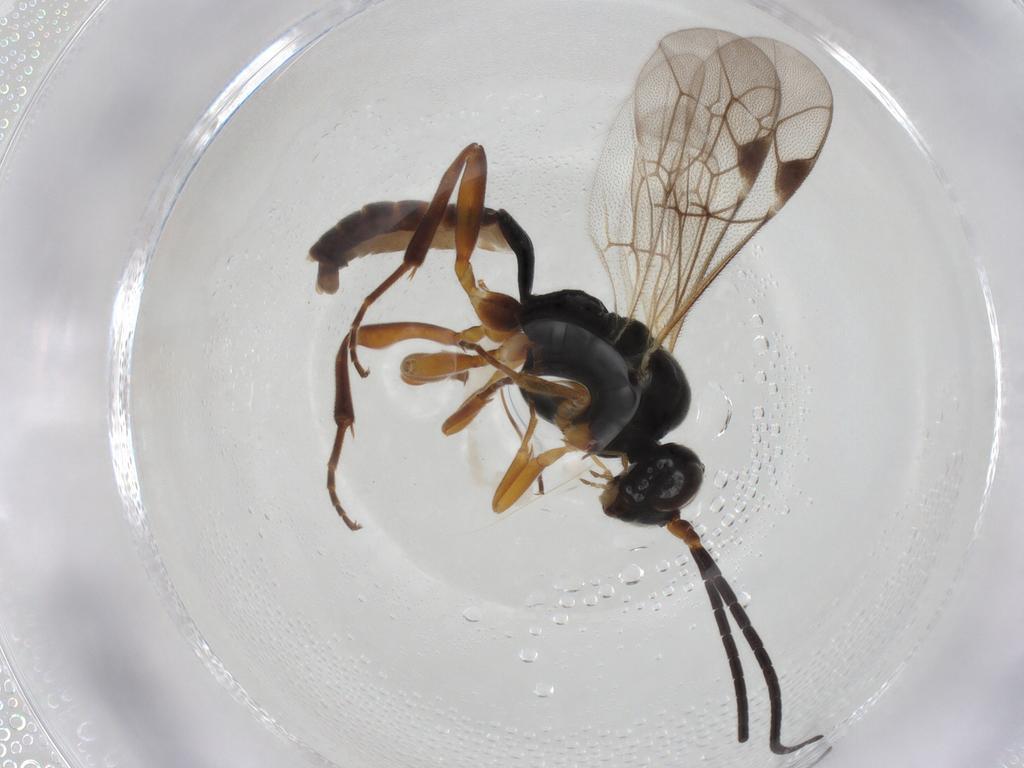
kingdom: Animalia
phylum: Arthropoda
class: Insecta
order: Hymenoptera
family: Ichneumonidae
